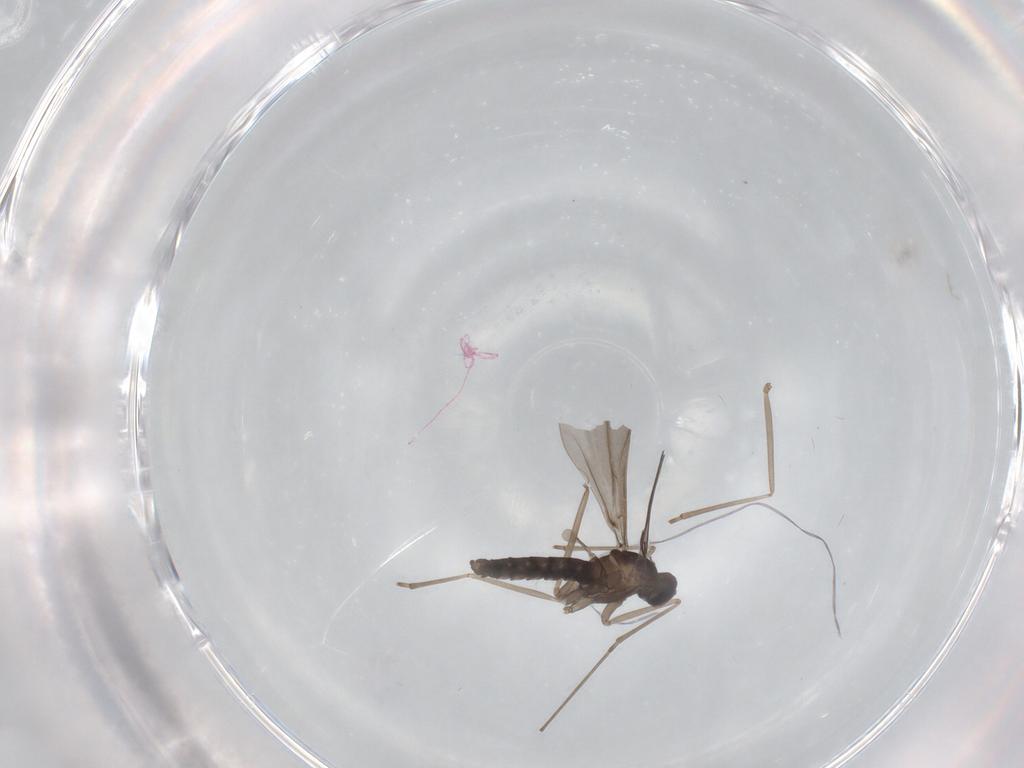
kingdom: Animalia
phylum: Arthropoda
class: Insecta
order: Diptera
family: Cecidomyiidae
